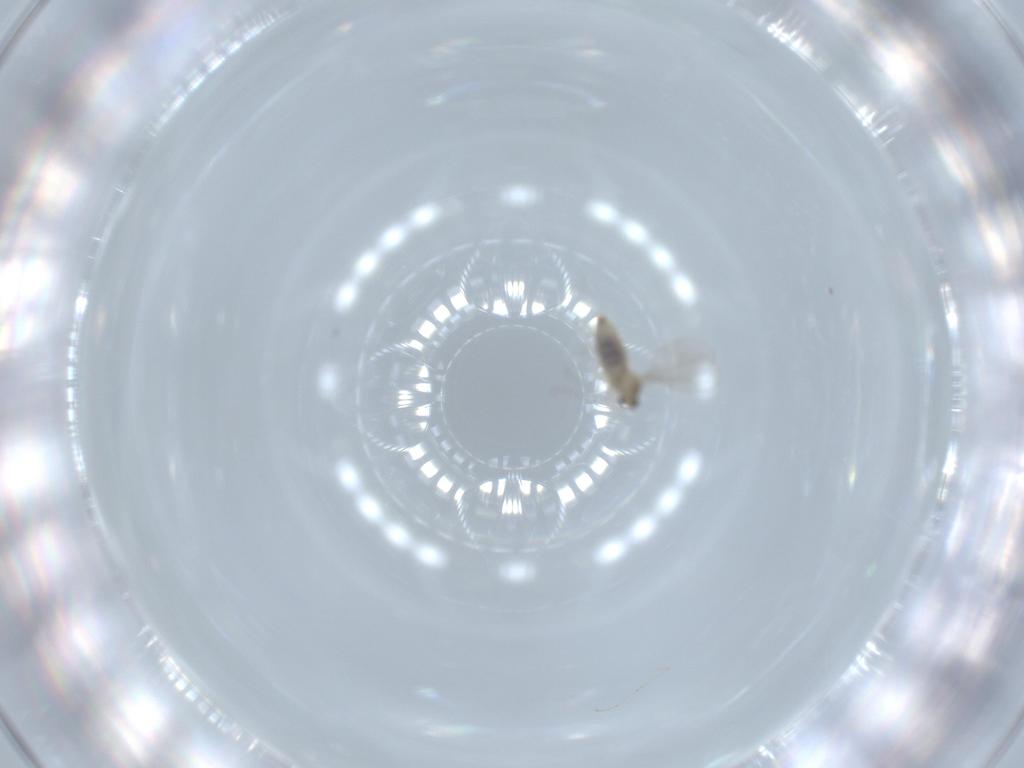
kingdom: Animalia
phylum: Arthropoda
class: Insecta
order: Diptera
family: Cecidomyiidae
